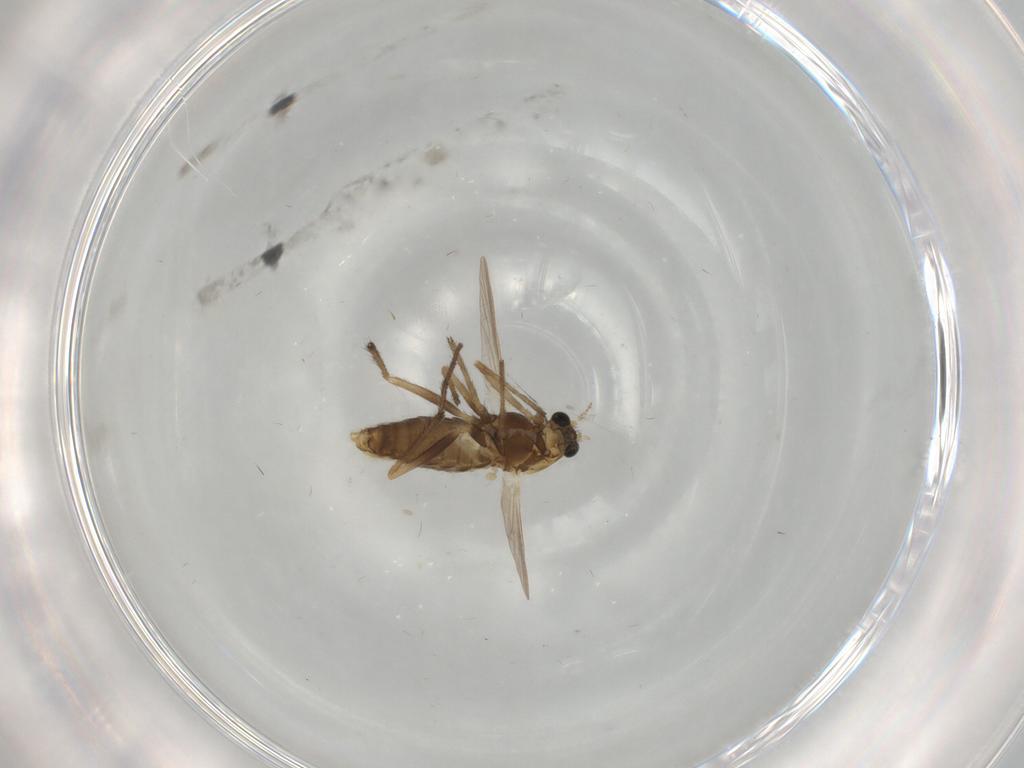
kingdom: Animalia
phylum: Arthropoda
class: Insecta
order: Diptera
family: Chironomidae
